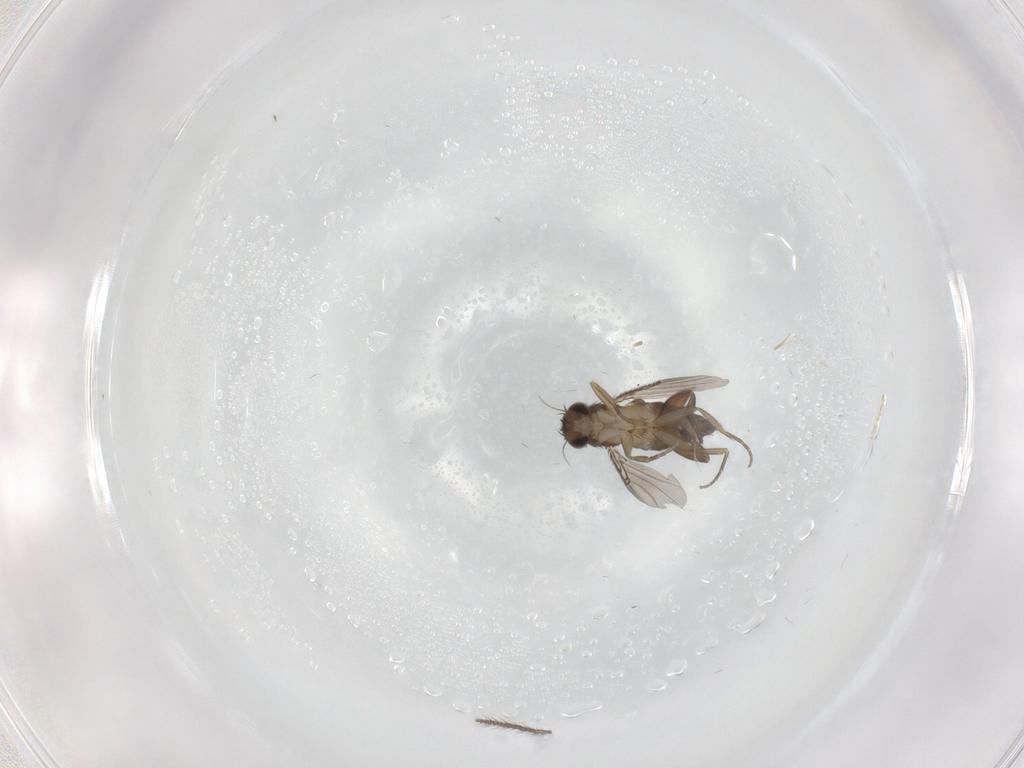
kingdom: Animalia
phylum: Arthropoda
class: Insecta
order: Diptera
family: Phoridae
